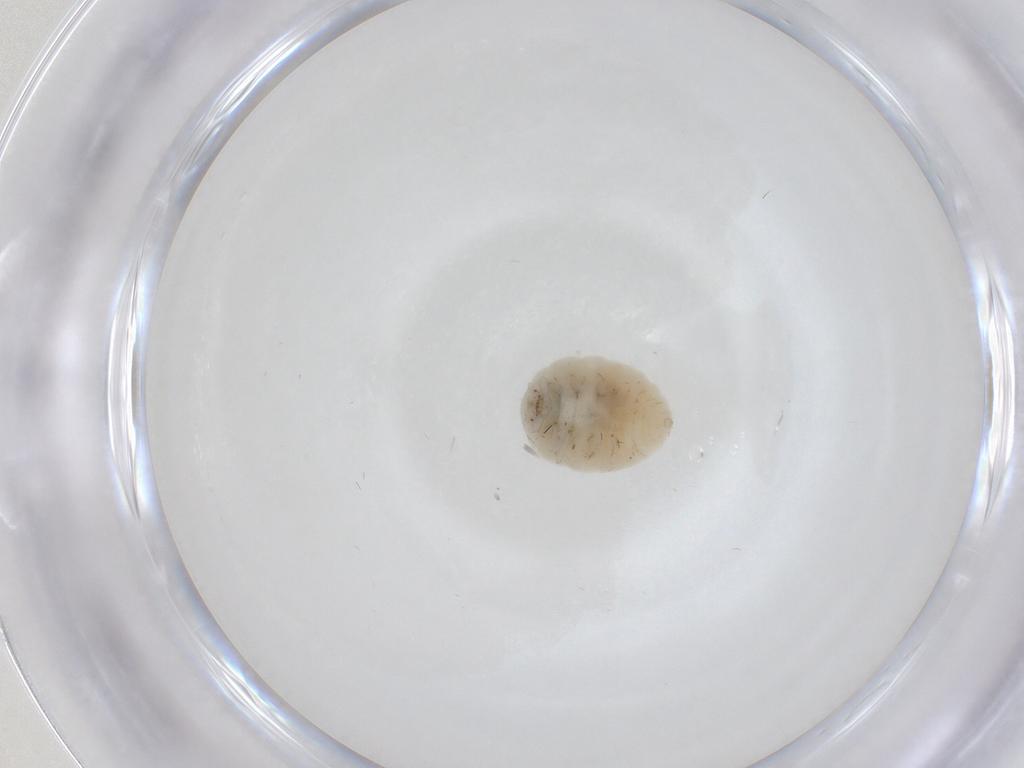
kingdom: Animalia
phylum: Arthropoda
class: Insecta
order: Neuroptera
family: Coniopterygidae
